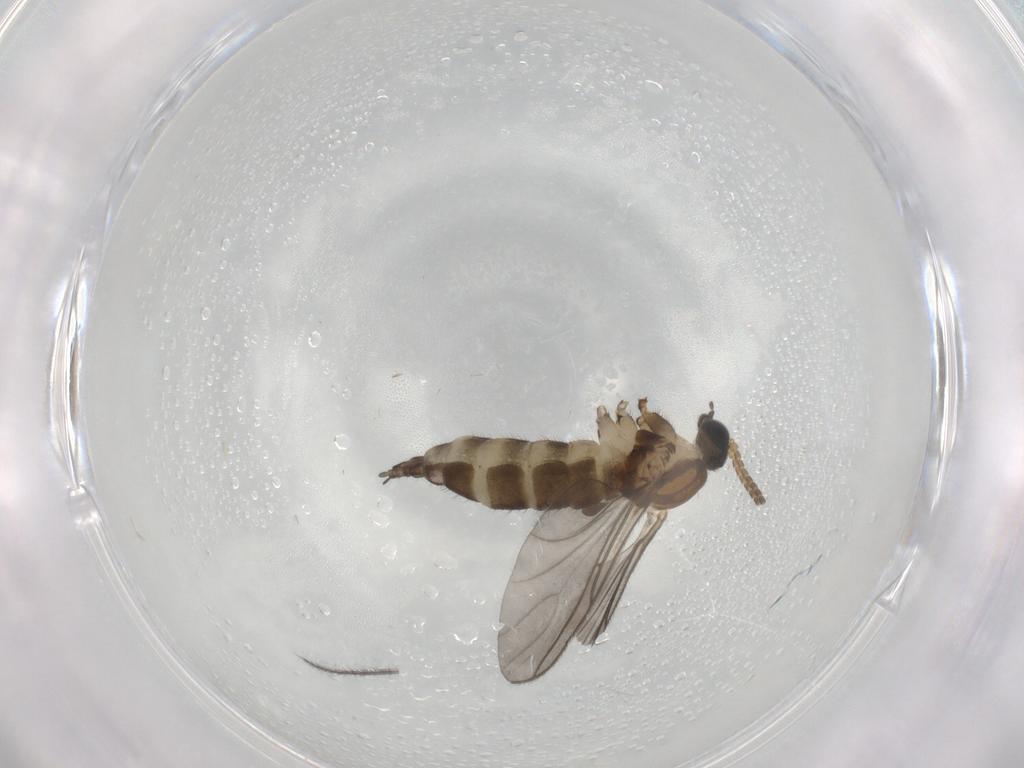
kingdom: Animalia
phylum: Arthropoda
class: Insecta
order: Diptera
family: Sciaridae
